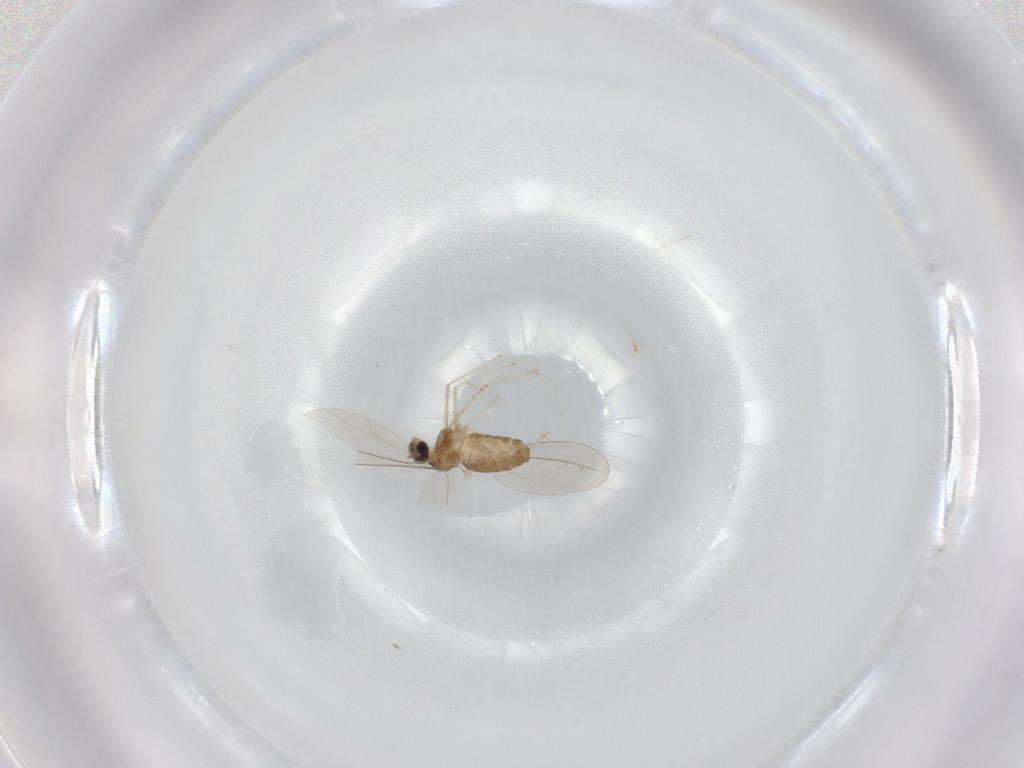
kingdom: Animalia
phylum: Arthropoda
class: Insecta
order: Diptera
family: Cecidomyiidae
